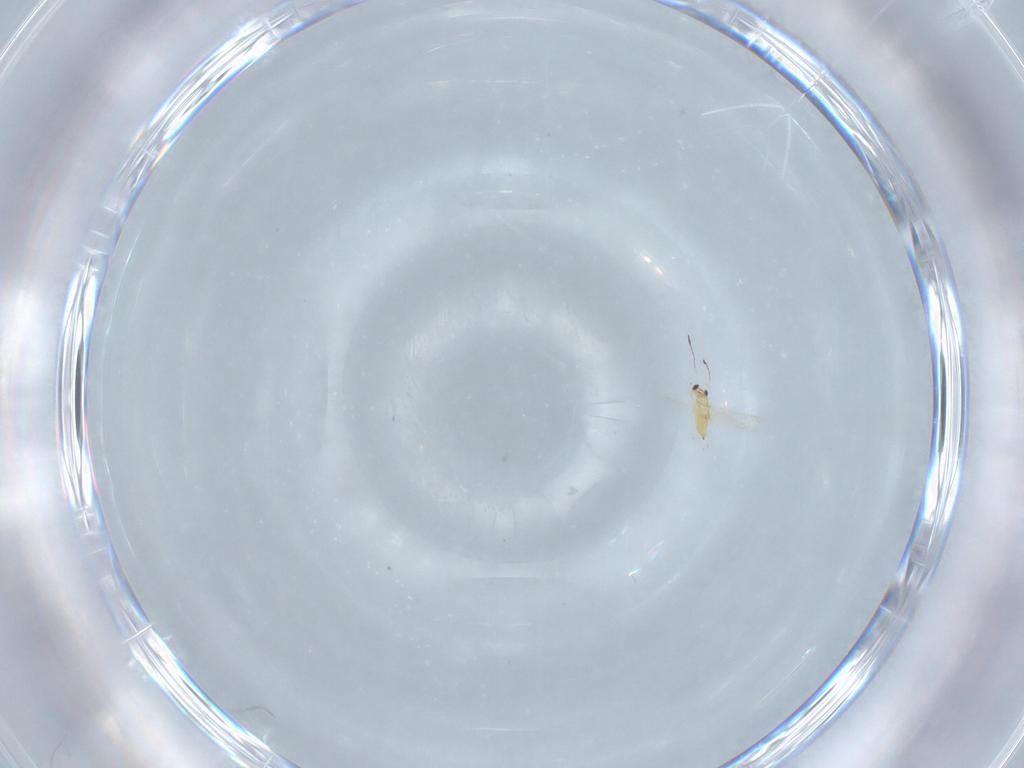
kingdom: Animalia
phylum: Arthropoda
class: Insecta
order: Hymenoptera
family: Mymaridae
